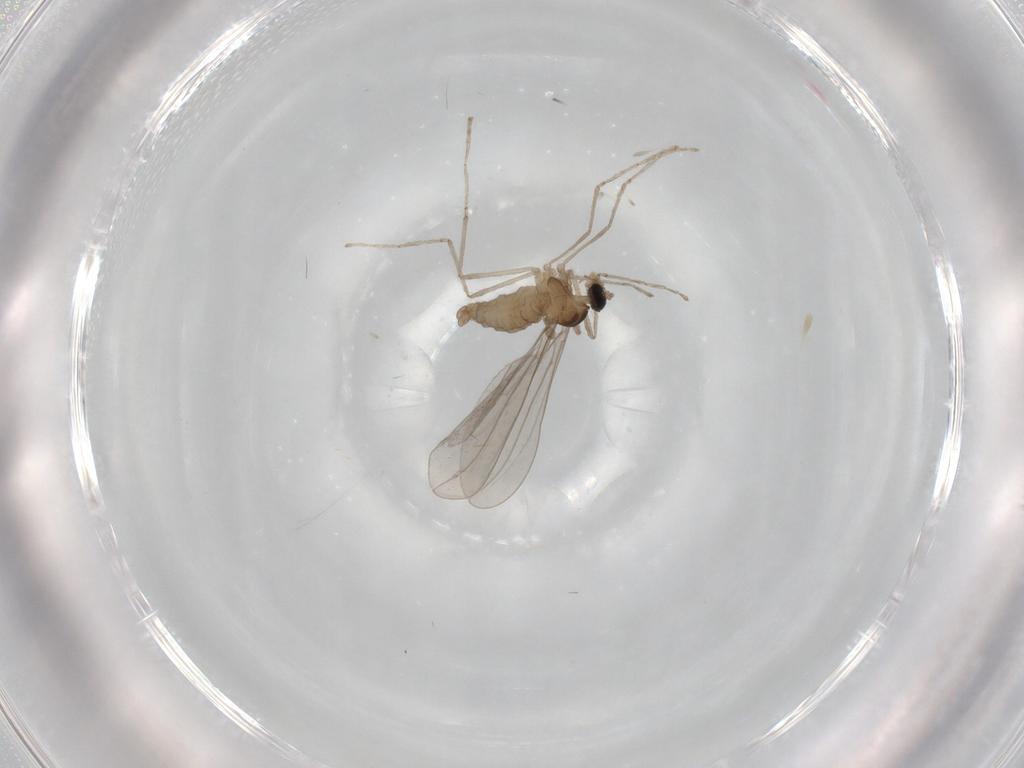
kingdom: Animalia
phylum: Arthropoda
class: Insecta
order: Diptera
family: Cecidomyiidae
